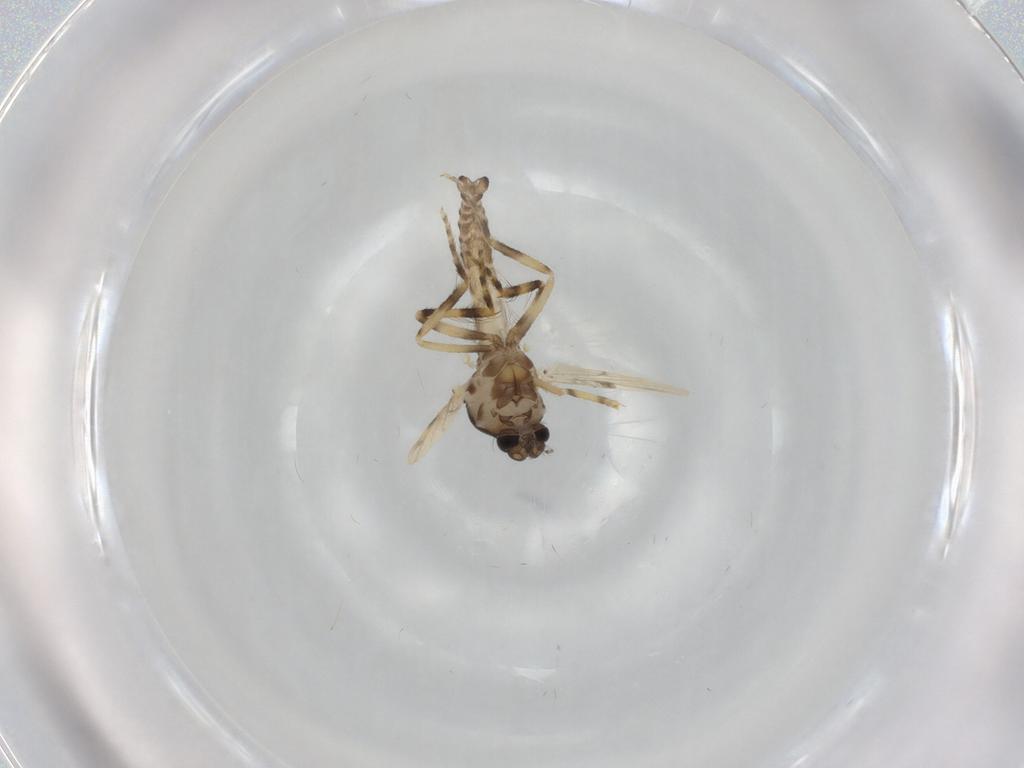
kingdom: Animalia
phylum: Arthropoda
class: Insecta
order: Diptera
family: Ceratopogonidae
